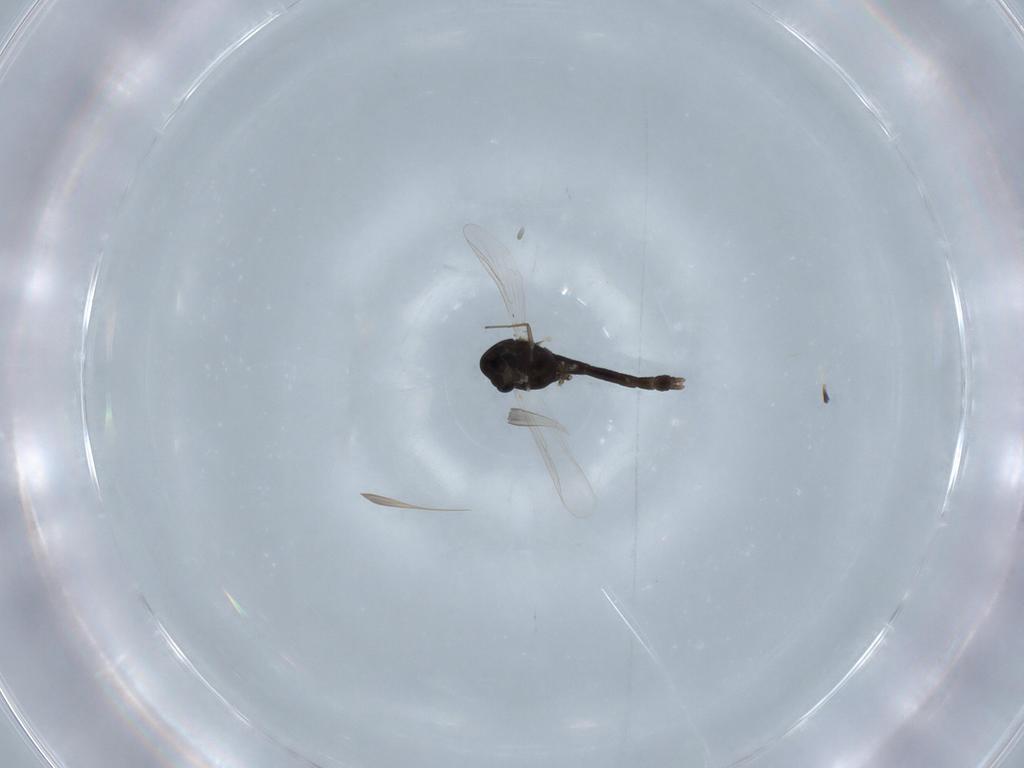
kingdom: Animalia
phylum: Arthropoda
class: Insecta
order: Diptera
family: Chironomidae
